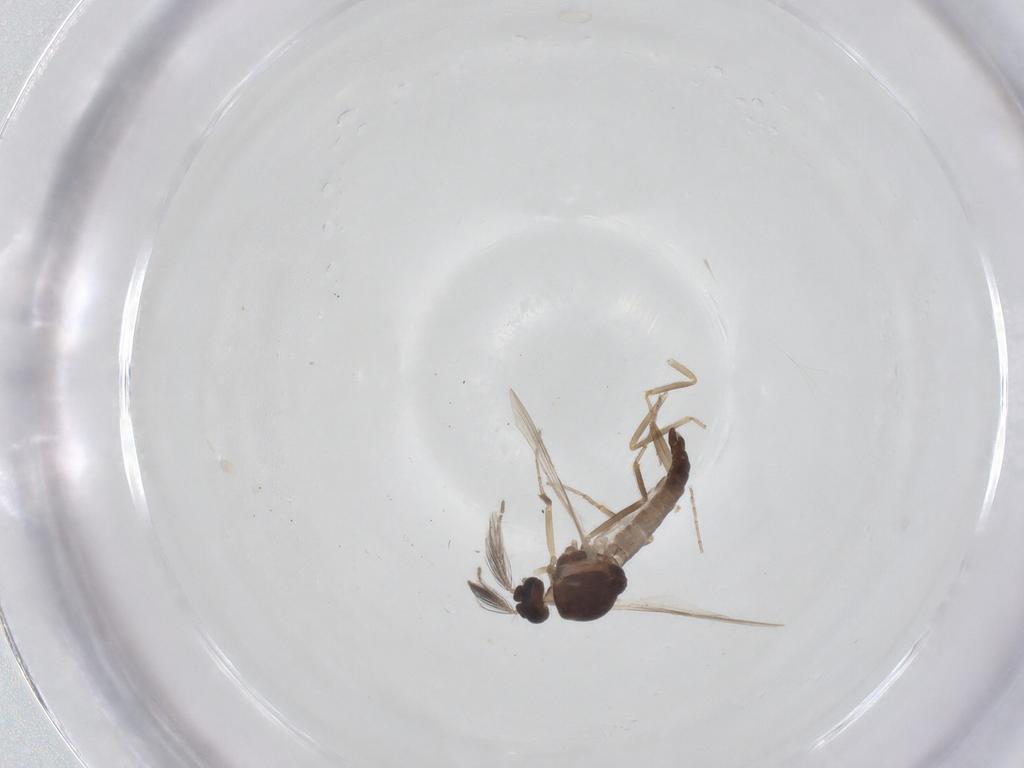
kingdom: Animalia
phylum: Arthropoda
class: Insecta
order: Diptera
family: Ceratopogonidae
